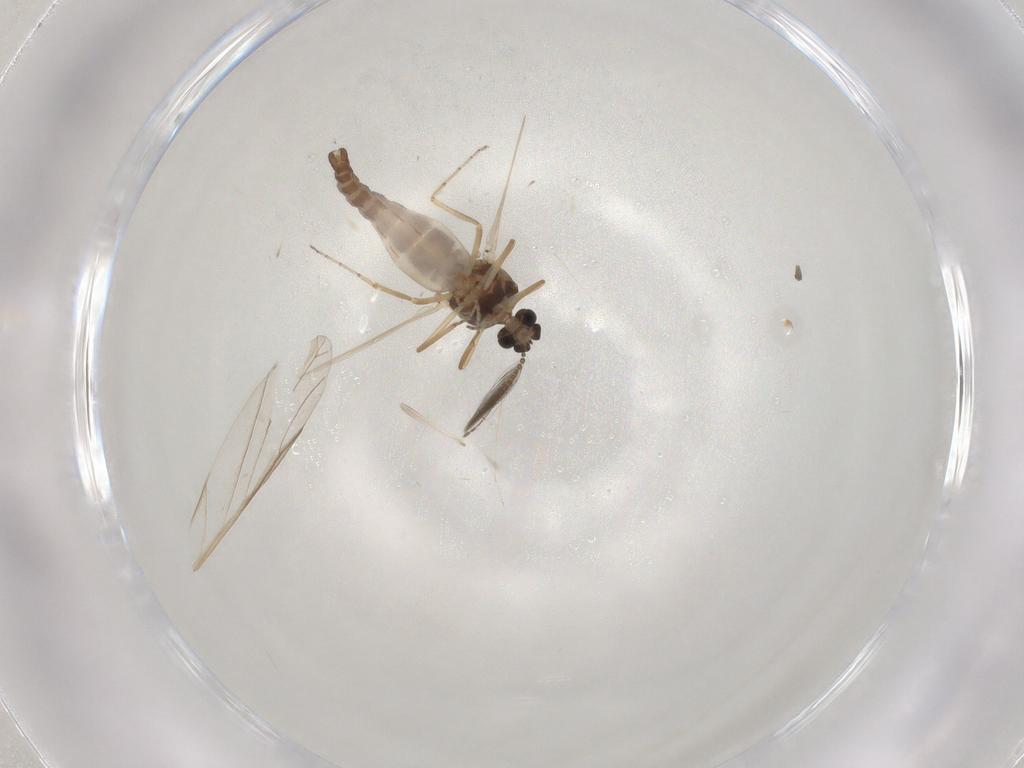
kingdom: Animalia
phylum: Arthropoda
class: Insecta
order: Diptera
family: Ceratopogonidae
